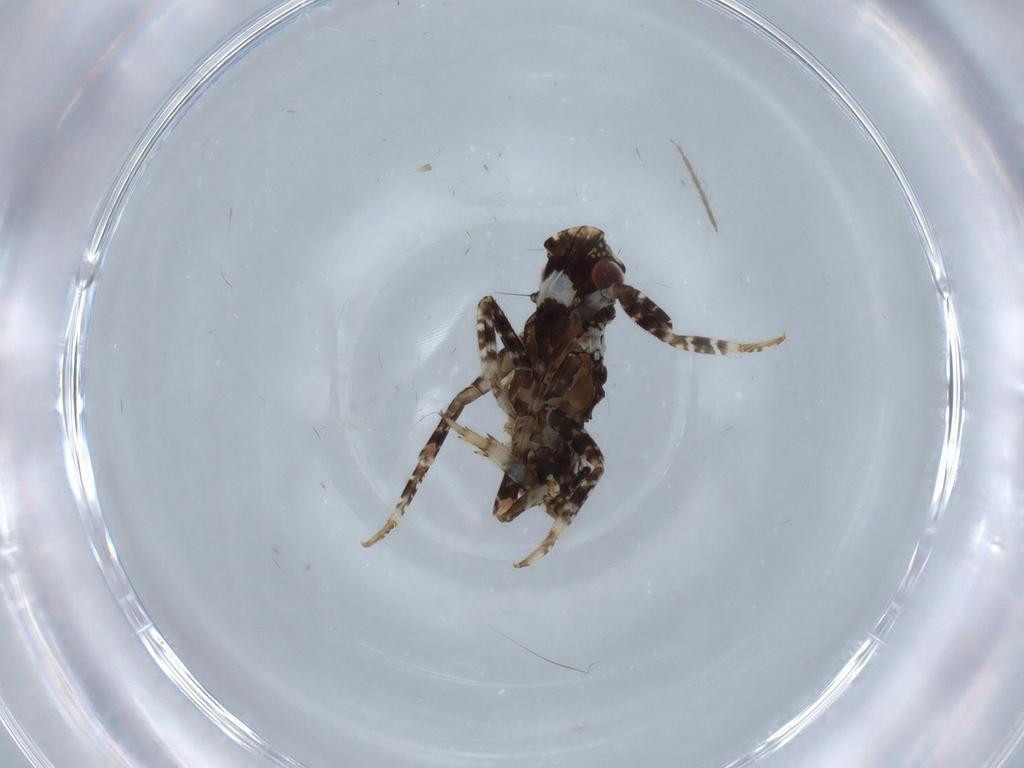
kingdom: Animalia
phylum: Arthropoda
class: Insecta
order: Hemiptera
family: Fulgoridae
